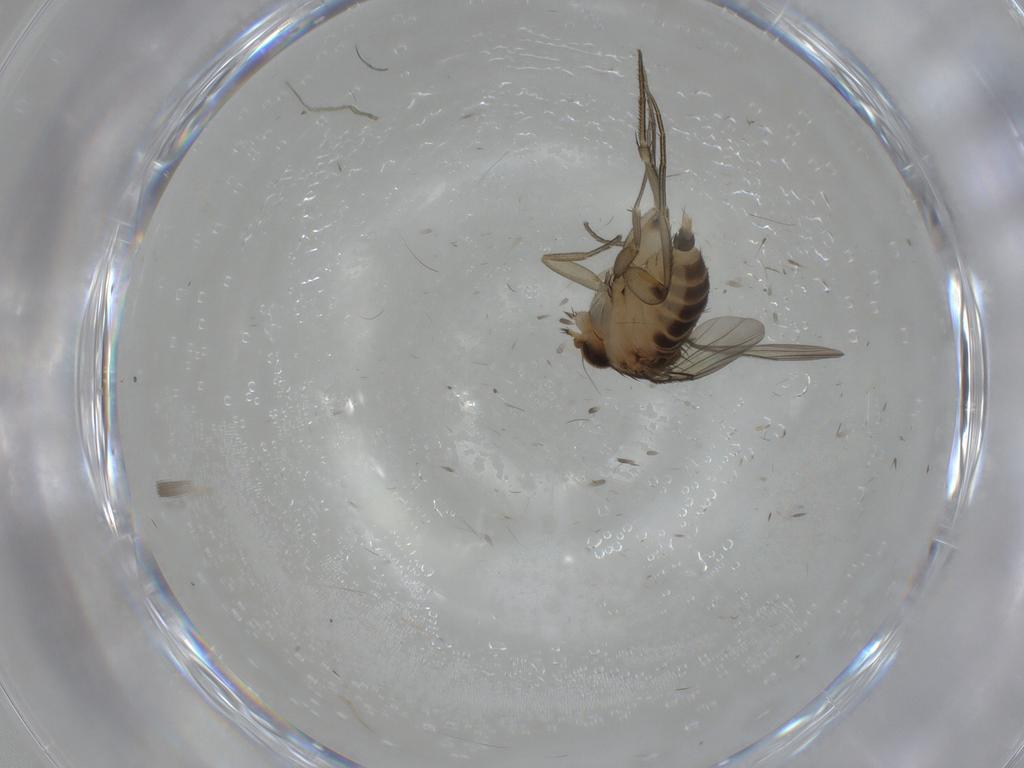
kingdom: Animalia
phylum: Arthropoda
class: Insecta
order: Diptera
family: Phoridae
